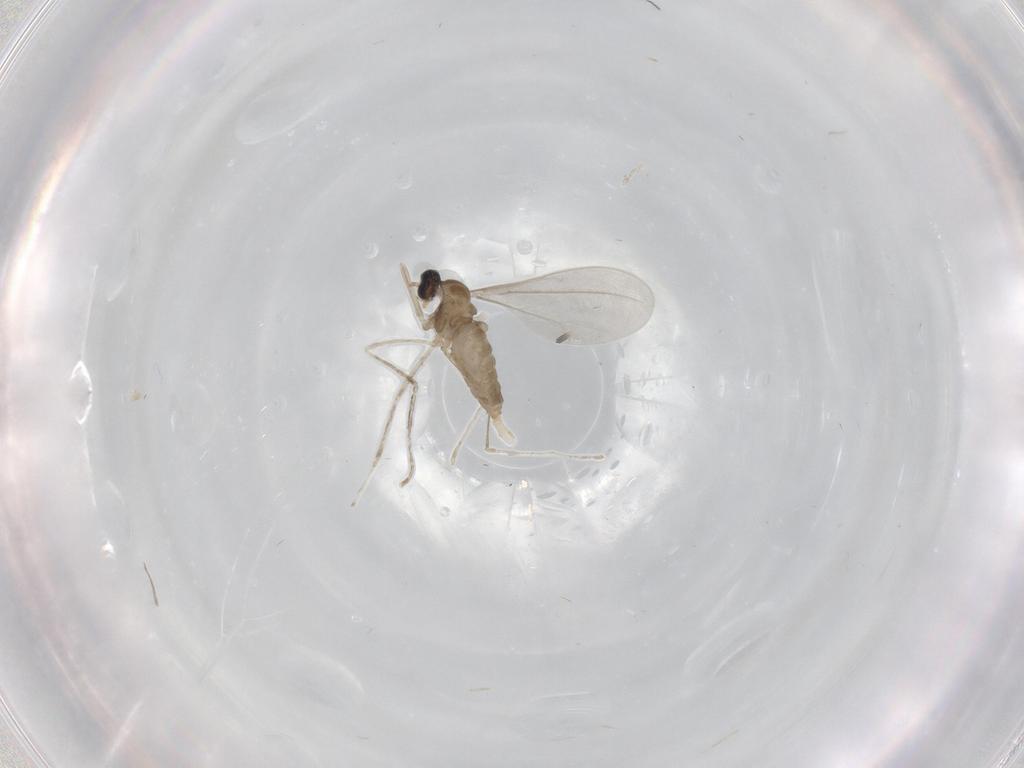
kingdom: Animalia
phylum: Arthropoda
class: Insecta
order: Diptera
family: Cecidomyiidae
